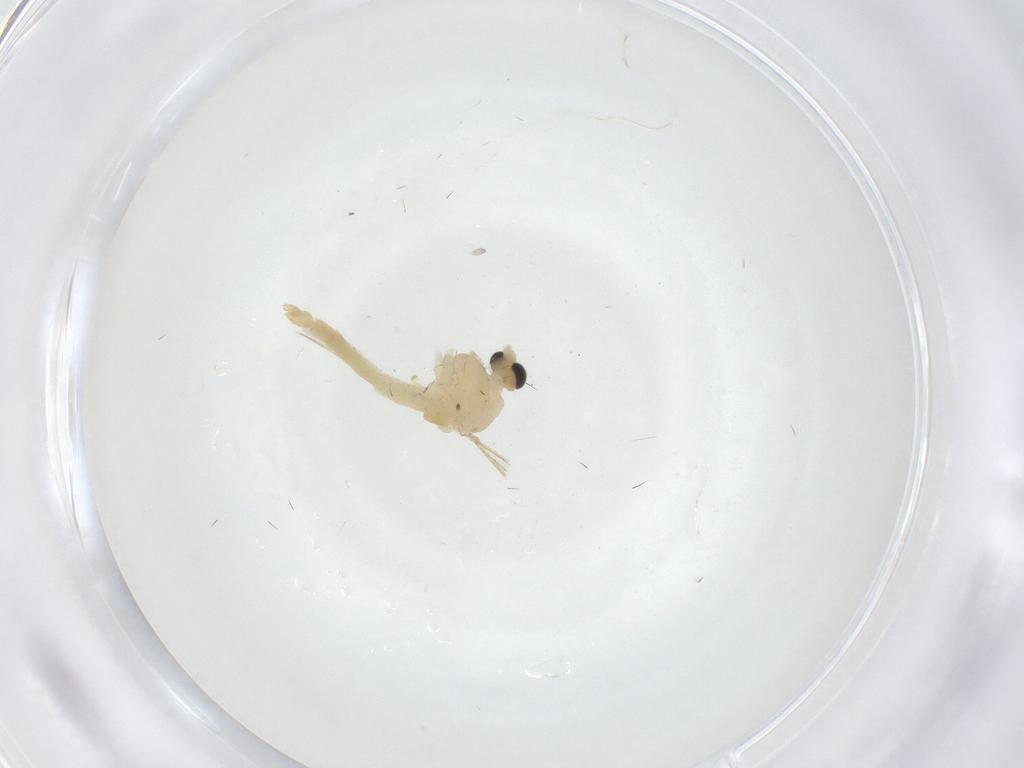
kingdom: Animalia
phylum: Arthropoda
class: Insecta
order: Diptera
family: Chironomidae
